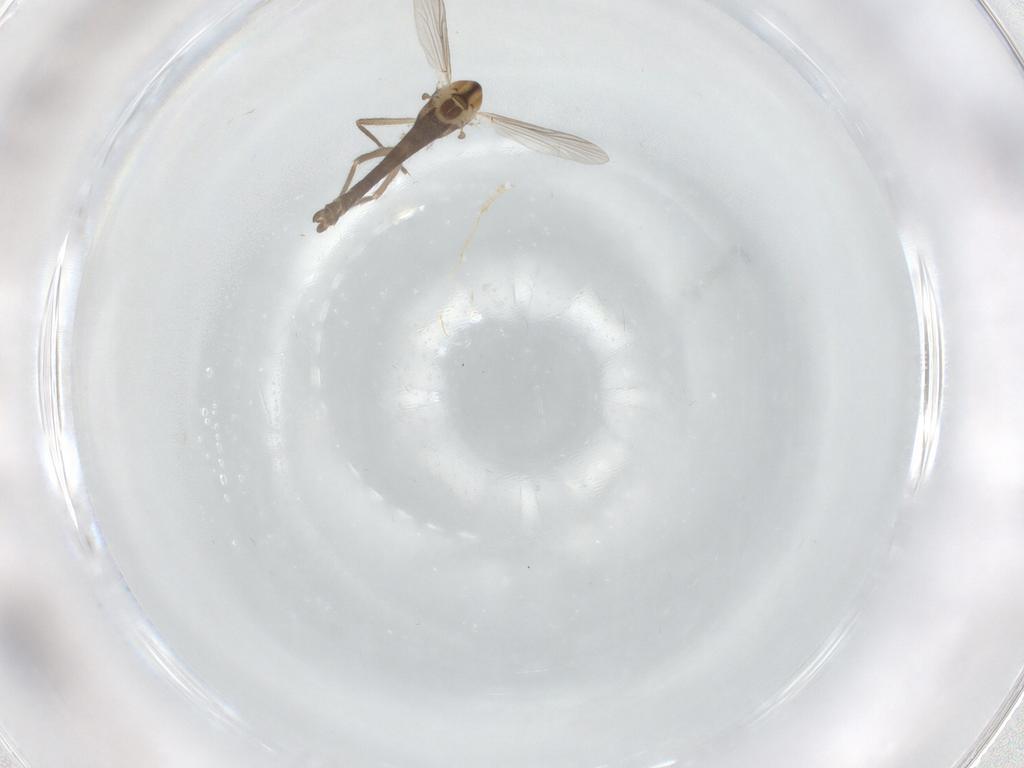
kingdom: Animalia
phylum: Arthropoda
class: Insecta
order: Diptera
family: Chironomidae
